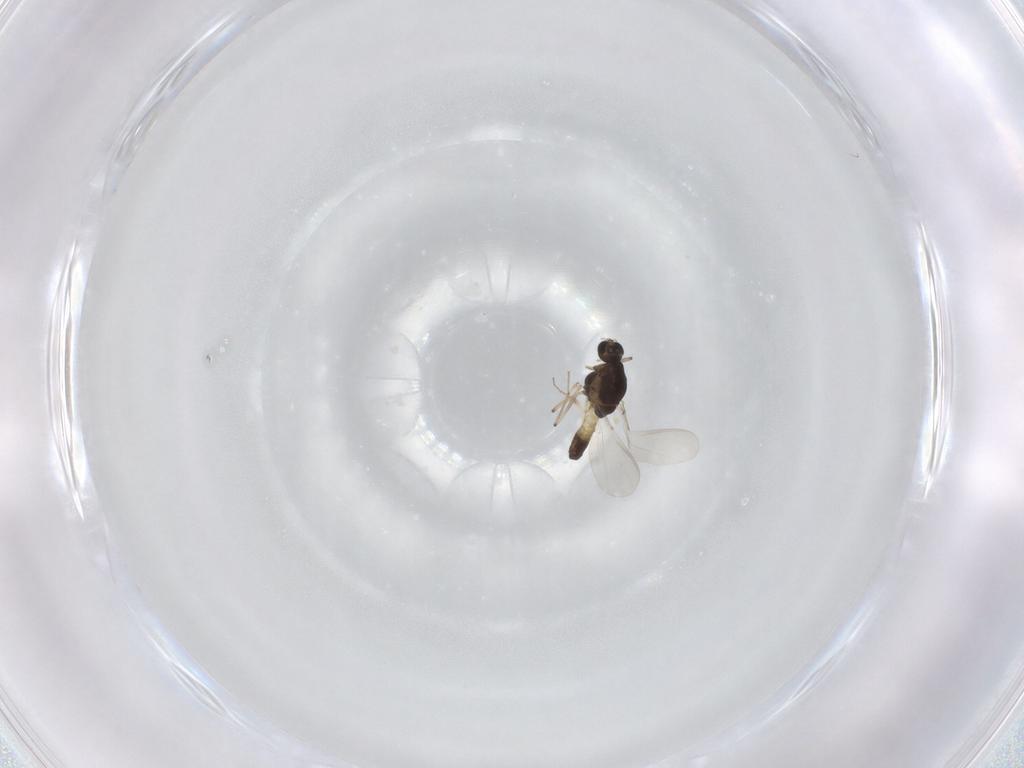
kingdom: Animalia
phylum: Arthropoda
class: Insecta
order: Diptera
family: Chironomidae
